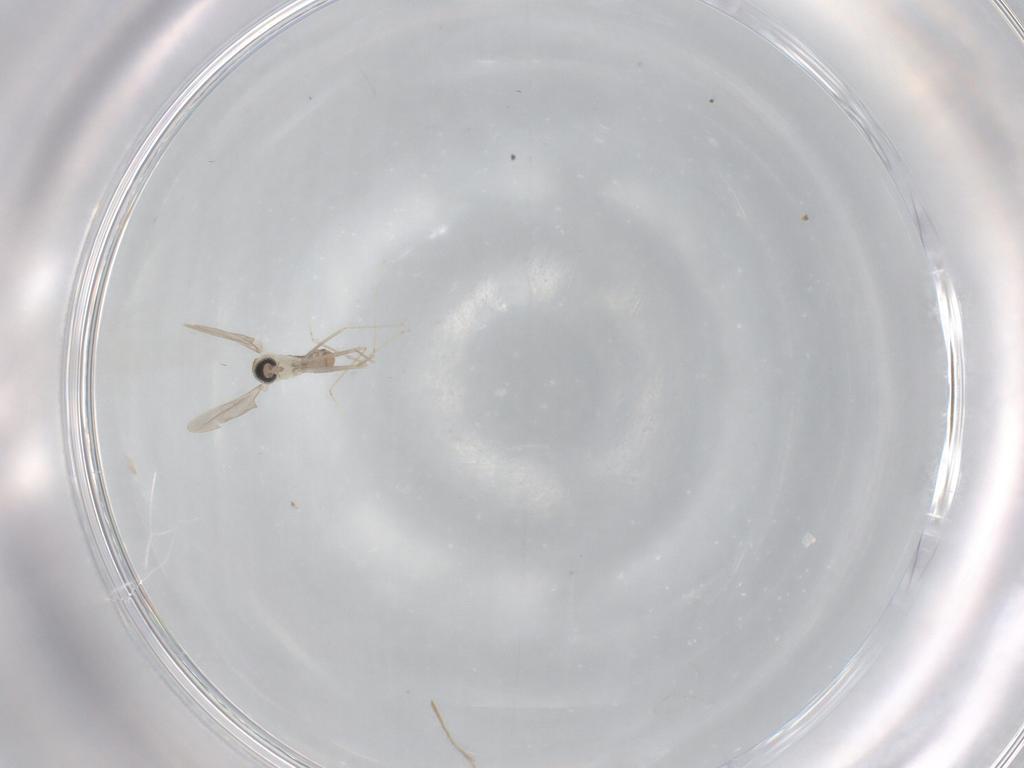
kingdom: Animalia
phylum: Arthropoda
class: Insecta
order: Diptera
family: Cecidomyiidae
